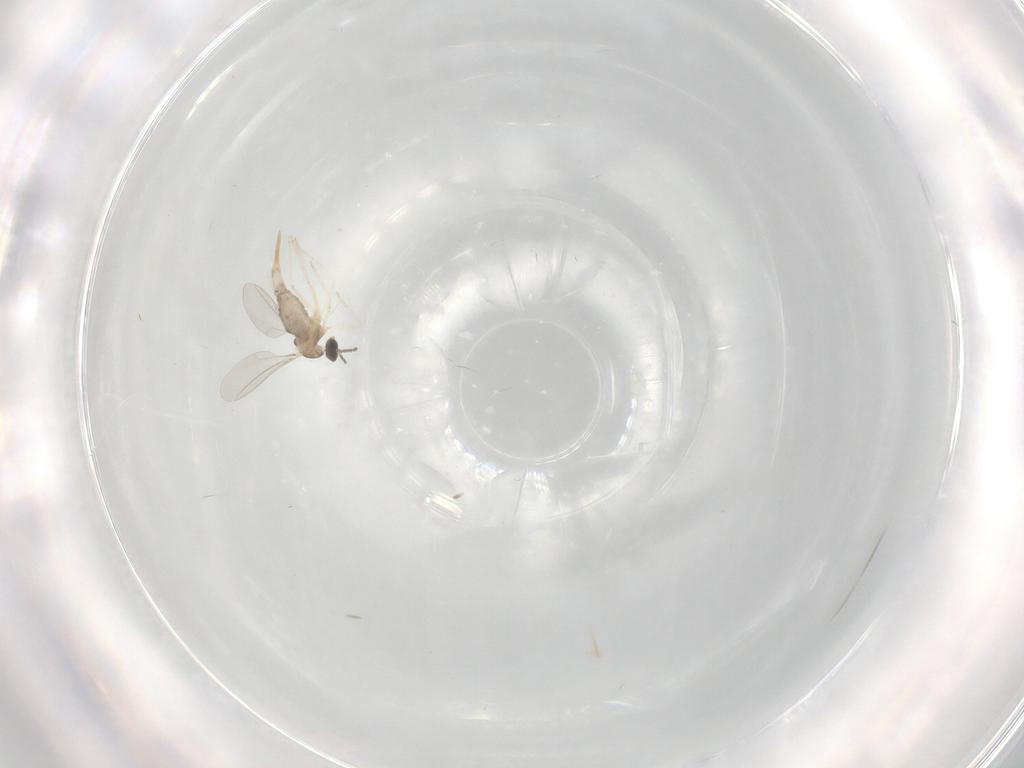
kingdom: Animalia
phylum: Arthropoda
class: Insecta
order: Diptera
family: Cecidomyiidae
